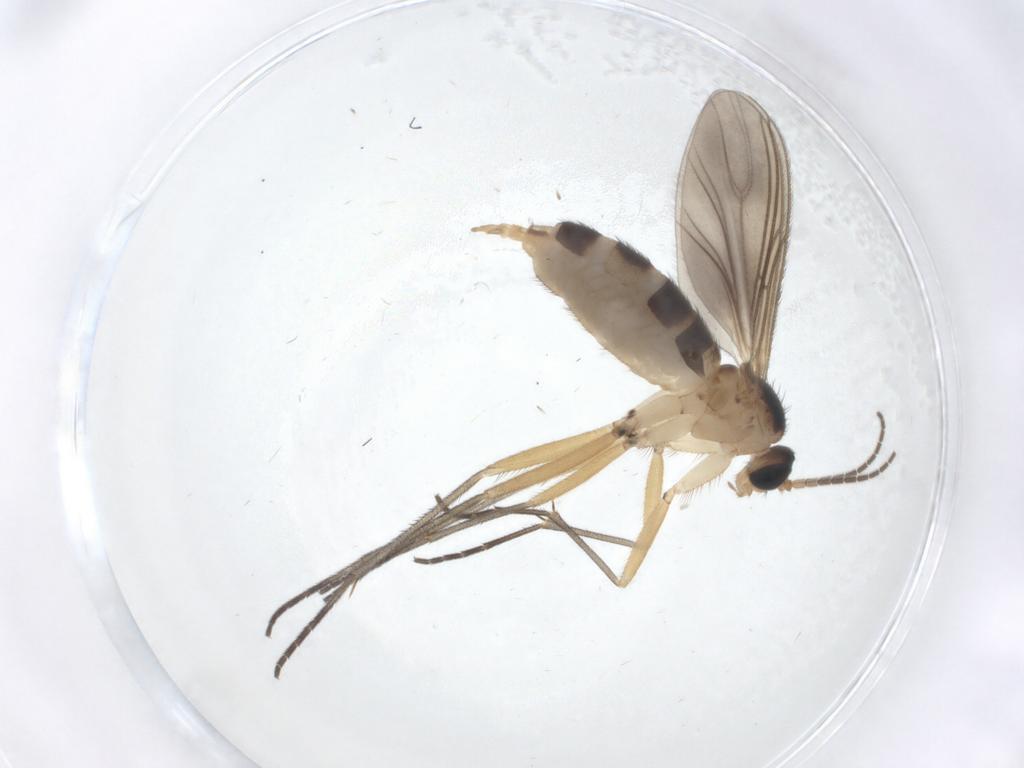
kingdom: Animalia
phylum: Arthropoda
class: Insecta
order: Diptera
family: Sciaridae
